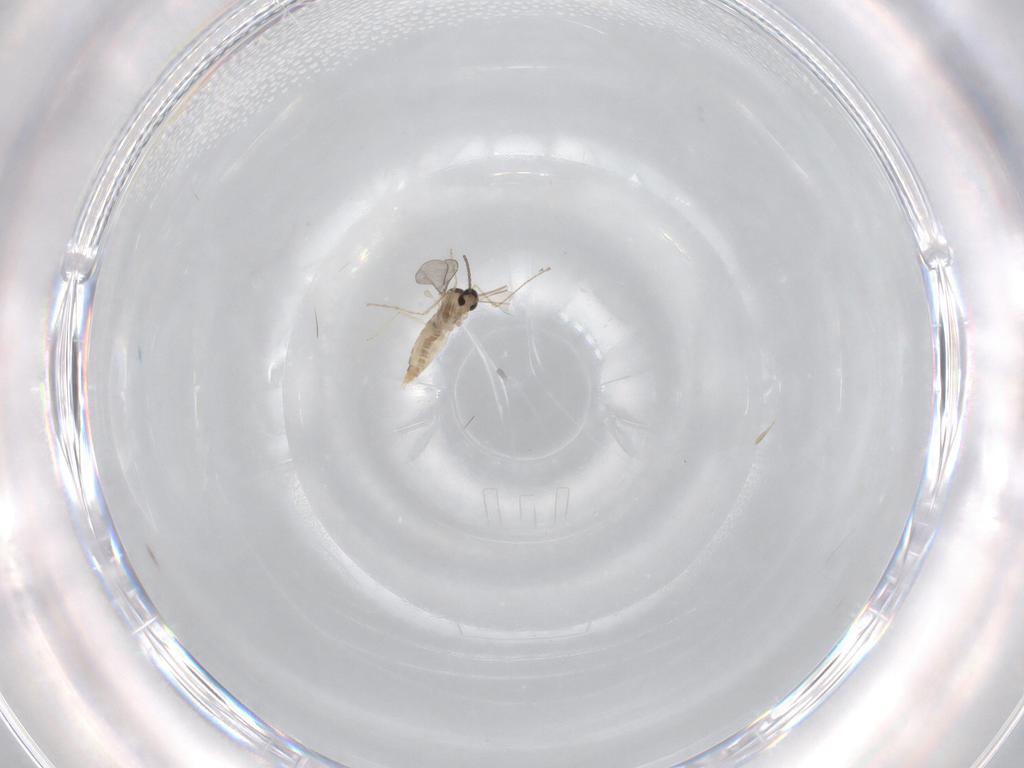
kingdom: Animalia
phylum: Arthropoda
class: Insecta
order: Diptera
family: Cecidomyiidae
